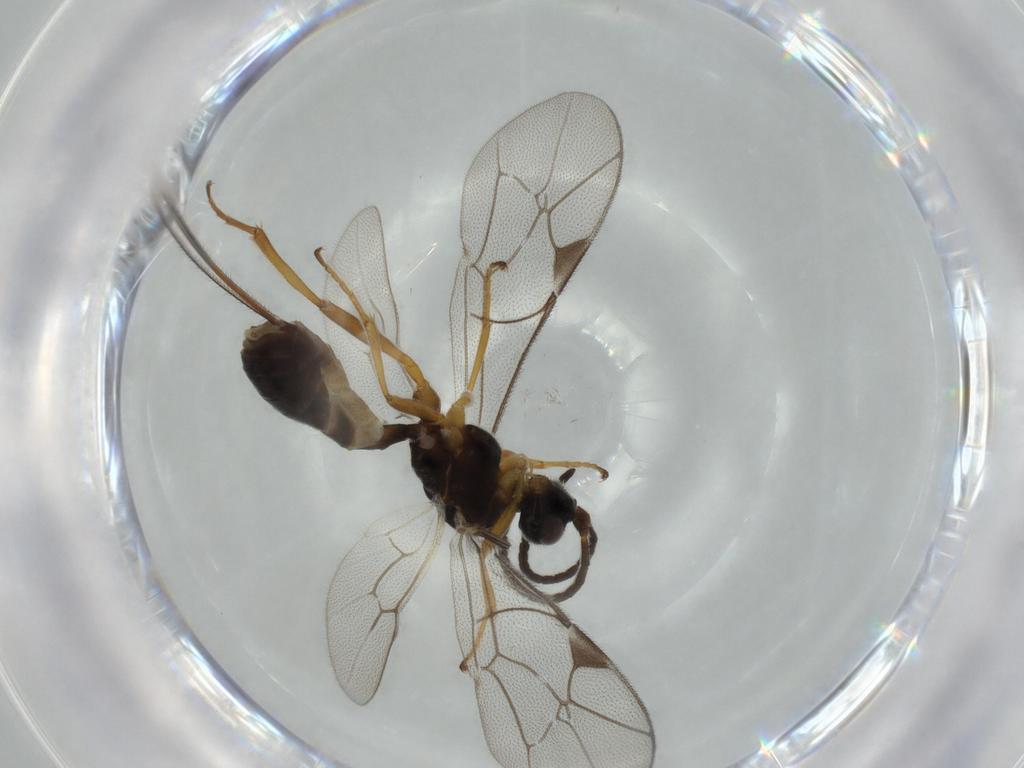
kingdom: Animalia
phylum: Arthropoda
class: Insecta
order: Hymenoptera
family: Ichneumonidae
